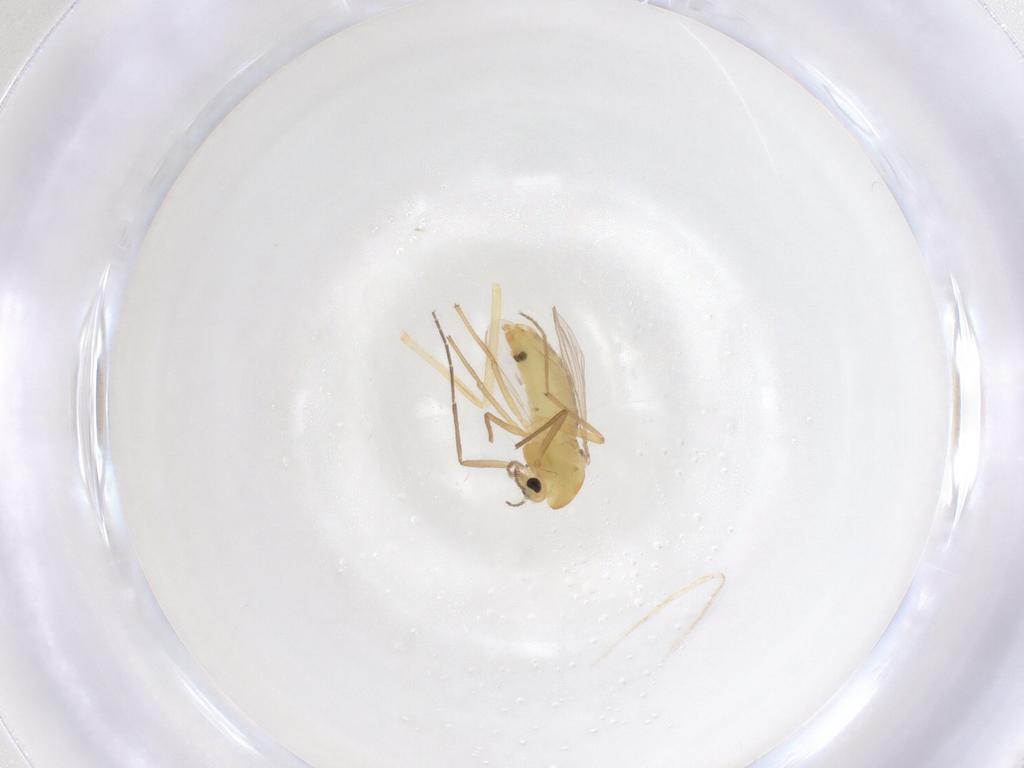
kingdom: Animalia
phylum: Arthropoda
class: Insecta
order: Diptera
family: Chironomidae
